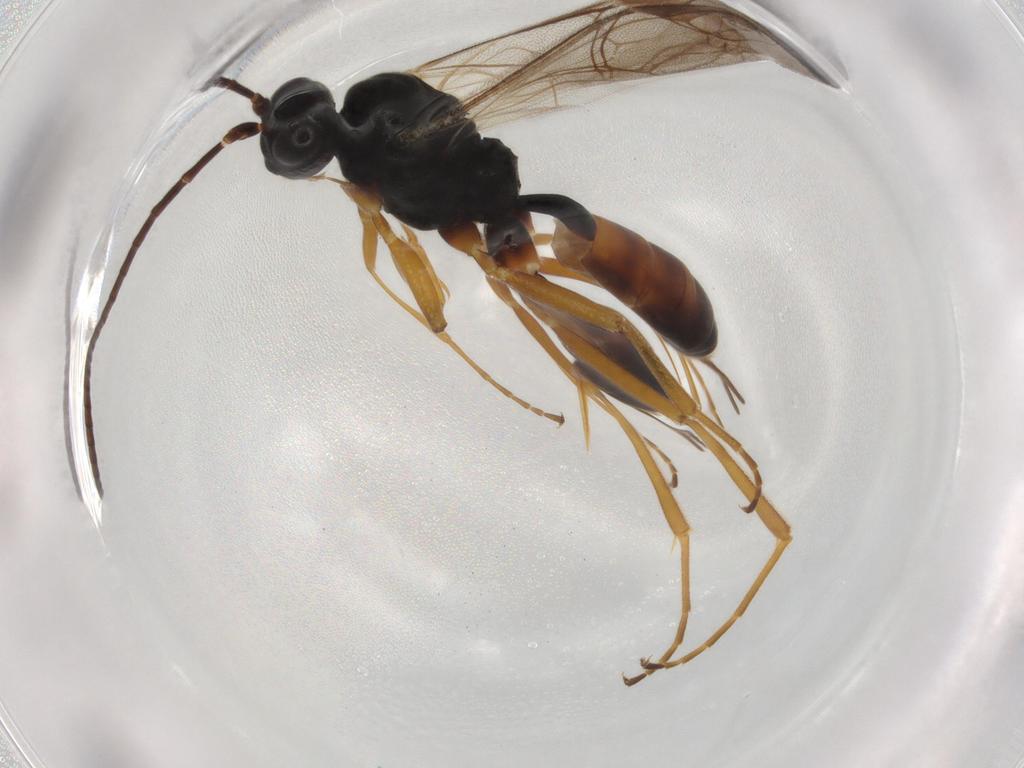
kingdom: Animalia
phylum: Arthropoda
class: Insecta
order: Hymenoptera
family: Ichneumonidae
